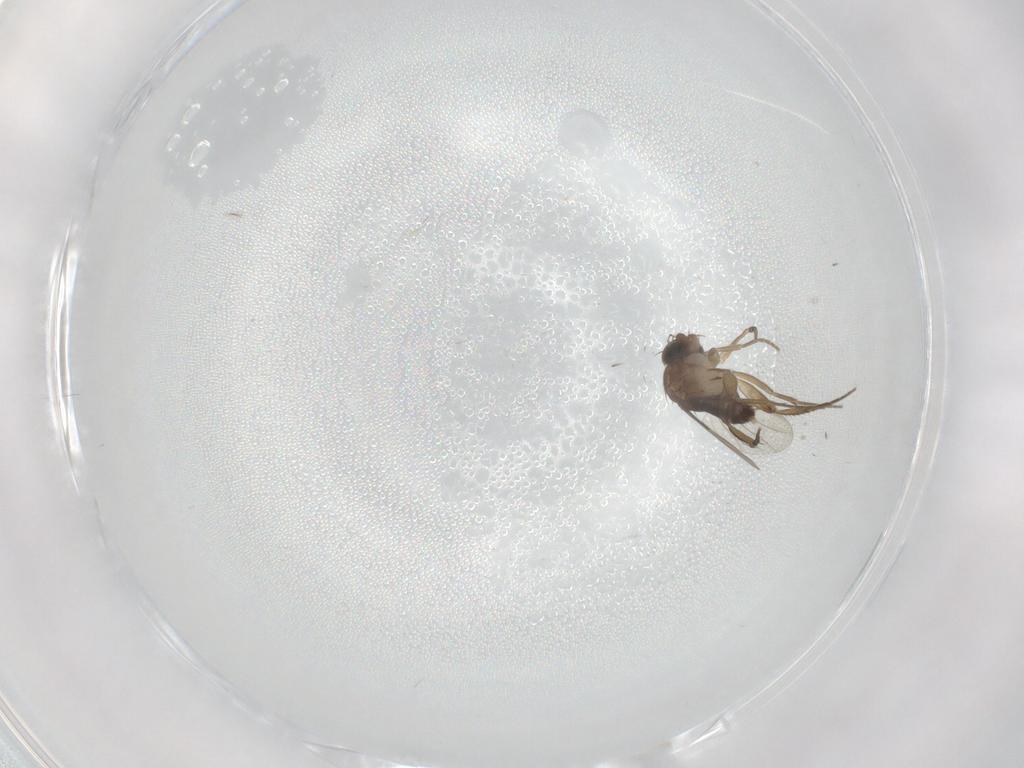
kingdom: Animalia
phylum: Arthropoda
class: Insecta
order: Diptera
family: Phoridae
